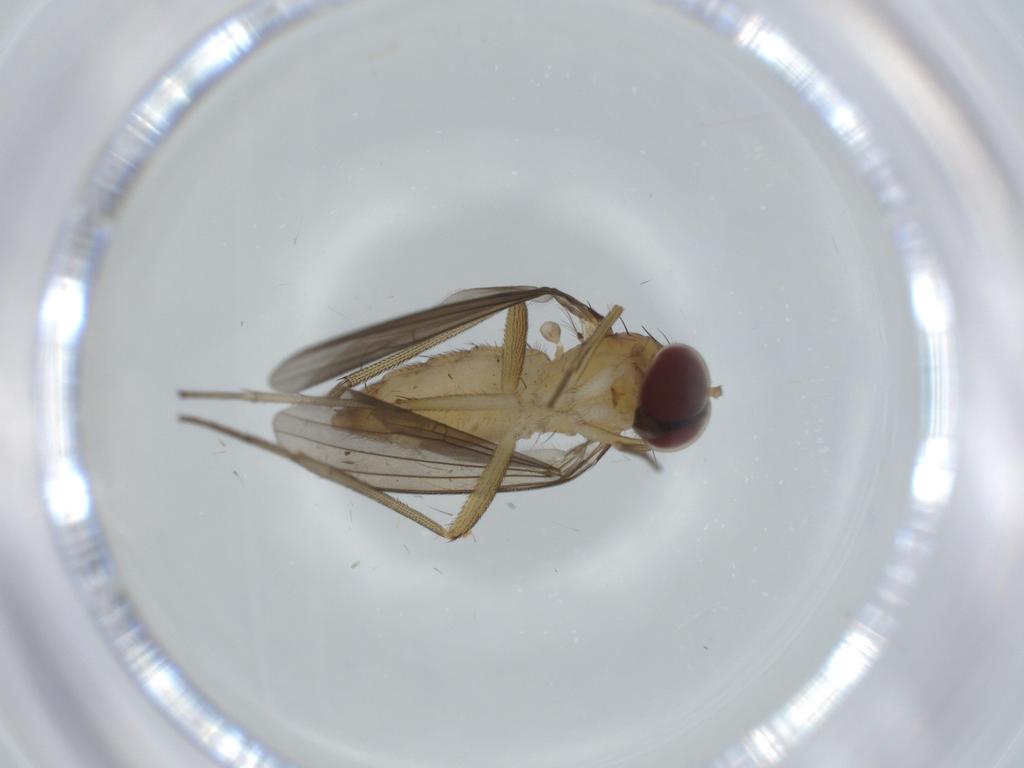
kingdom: Animalia
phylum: Arthropoda
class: Insecta
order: Diptera
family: Dolichopodidae
